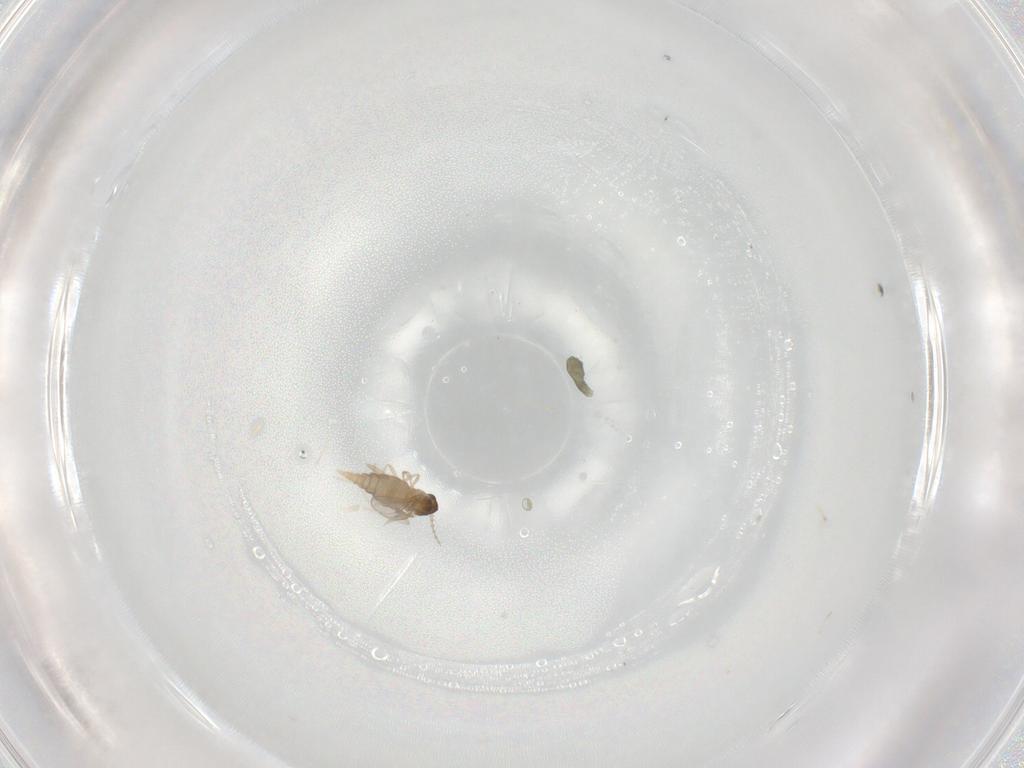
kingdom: Animalia
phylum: Arthropoda
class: Insecta
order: Diptera
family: Cecidomyiidae
